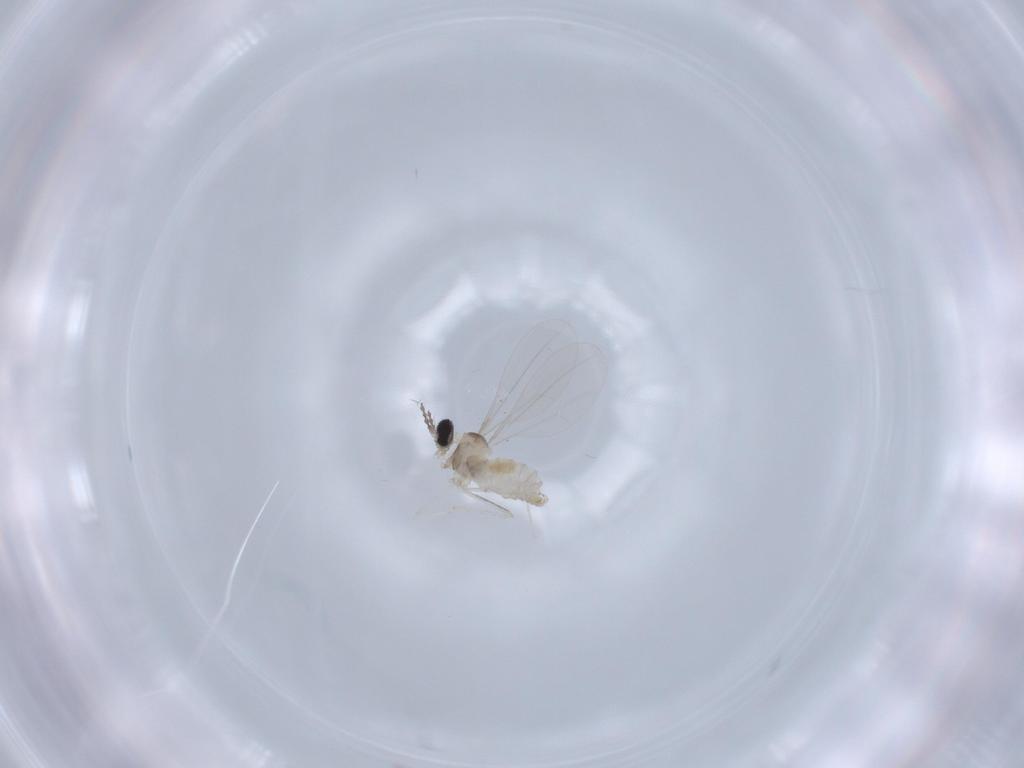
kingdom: Animalia
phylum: Arthropoda
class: Insecta
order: Diptera
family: Cecidomyiidae
